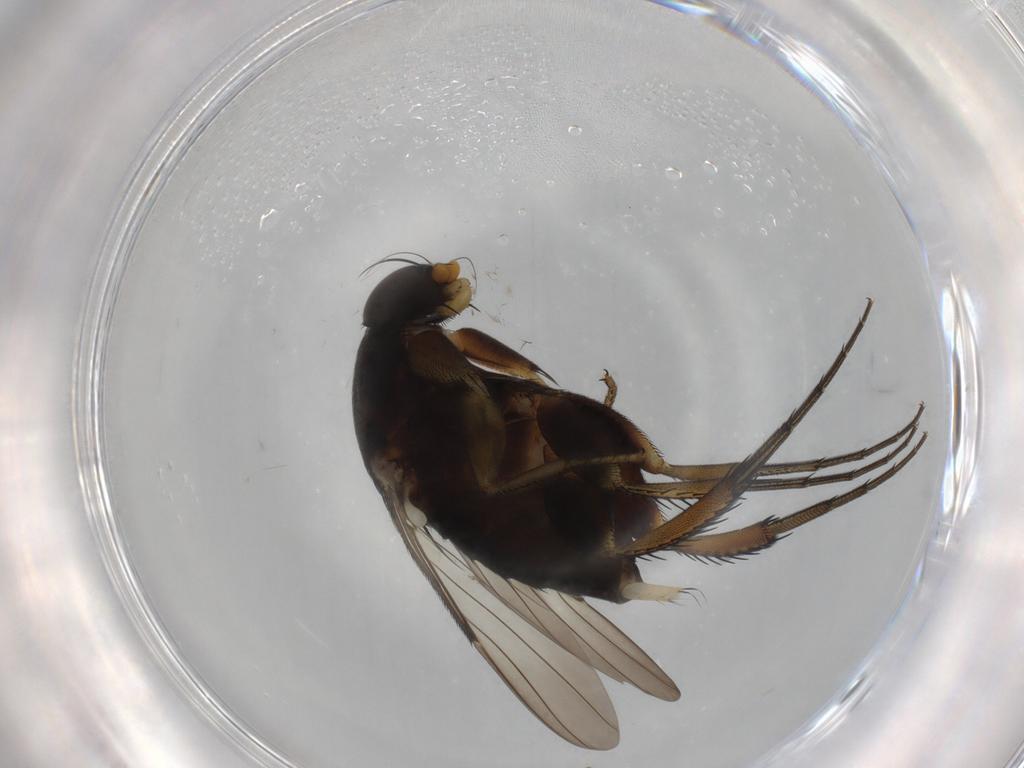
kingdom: Animalia
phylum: Arthropoda
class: Insecta
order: Diptera
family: Phoridae
